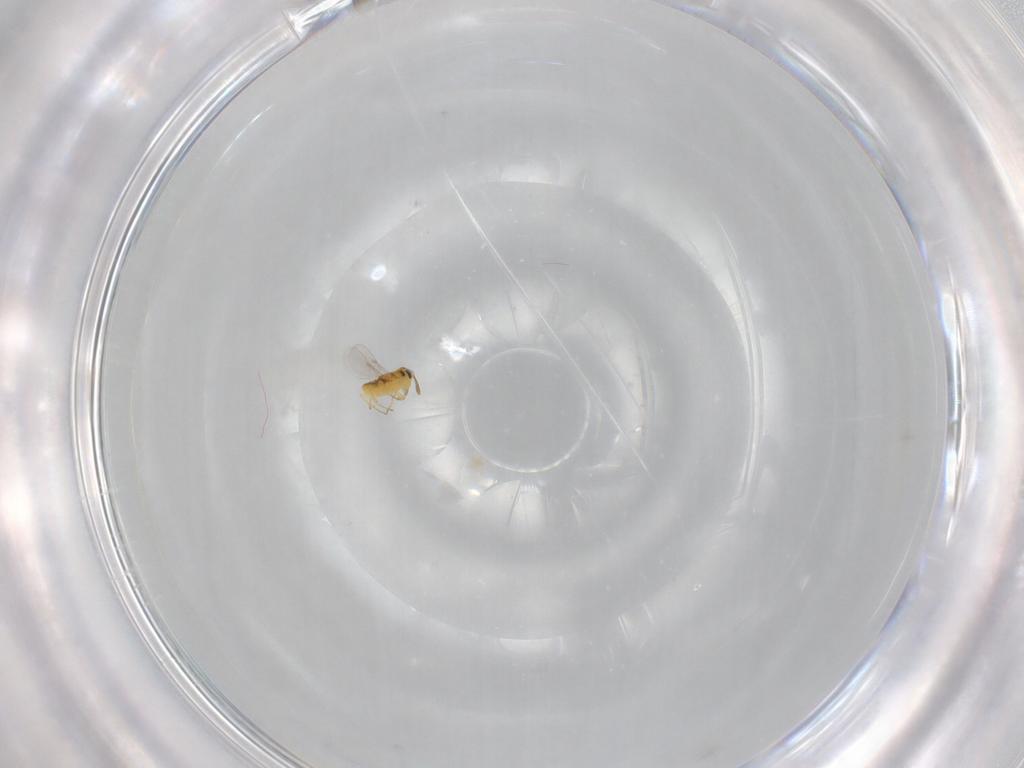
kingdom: Animalia
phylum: Arthropoda
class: Insecta
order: Hymenoptera
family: Encyrtidae
